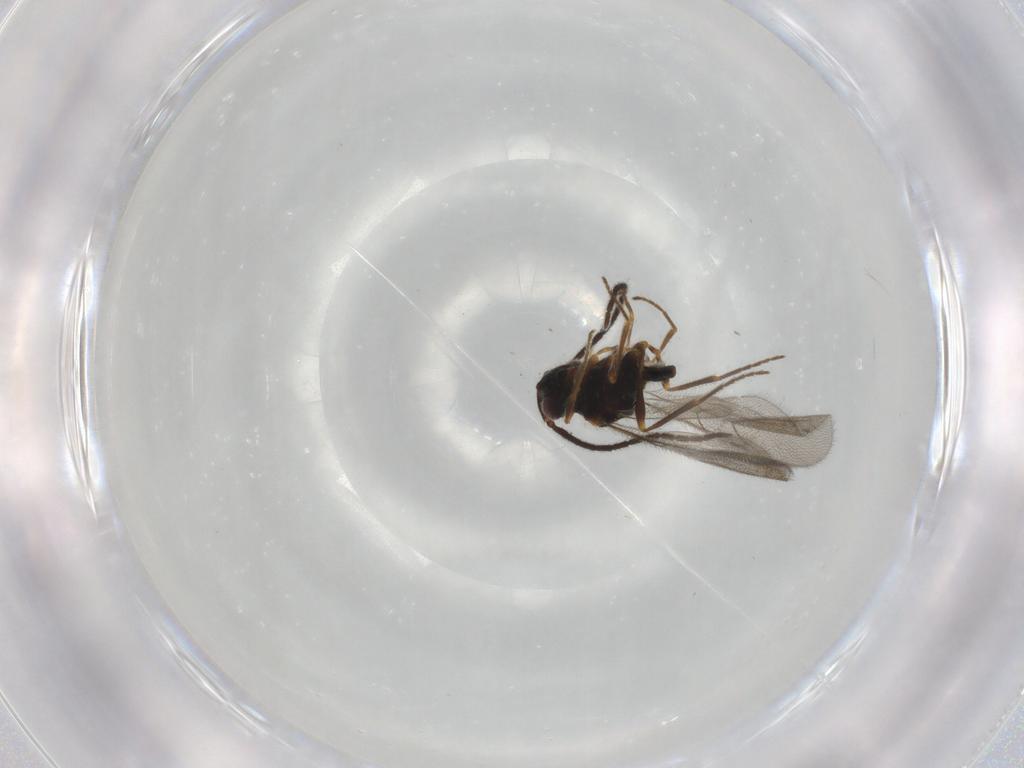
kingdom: Animalia
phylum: Arthropoda
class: Insecta
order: Hymenoptera
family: Diapriidae
